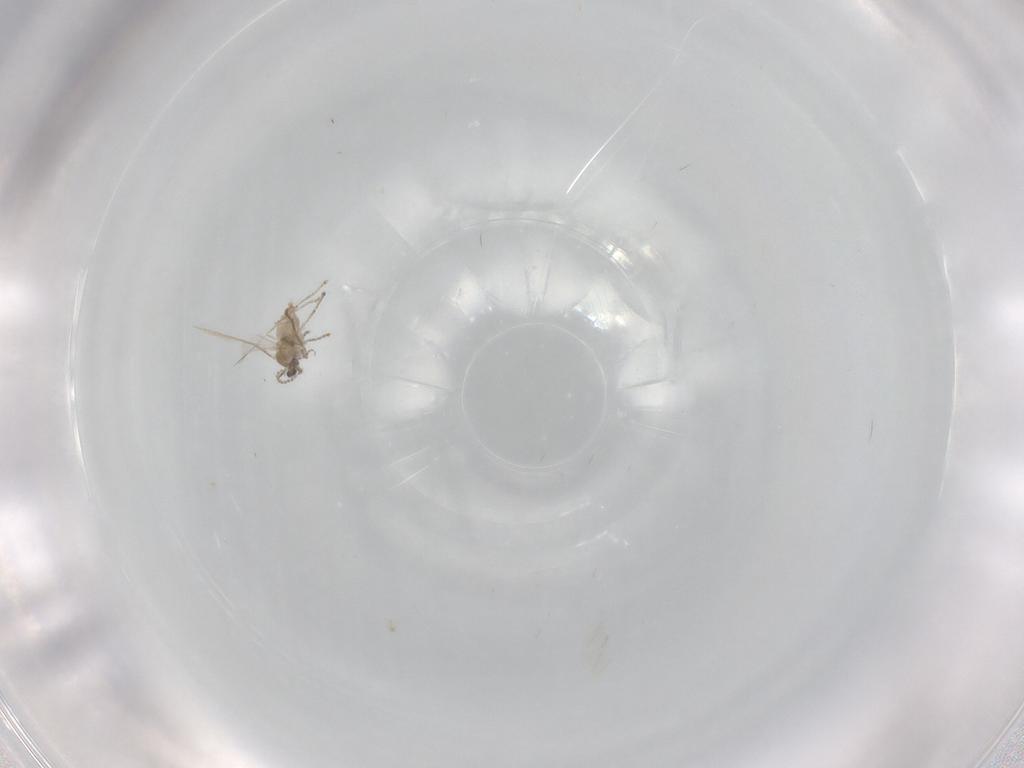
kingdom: Animalia
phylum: Arthropoda
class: Insecta
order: Diptera
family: Cecidomyiidae
